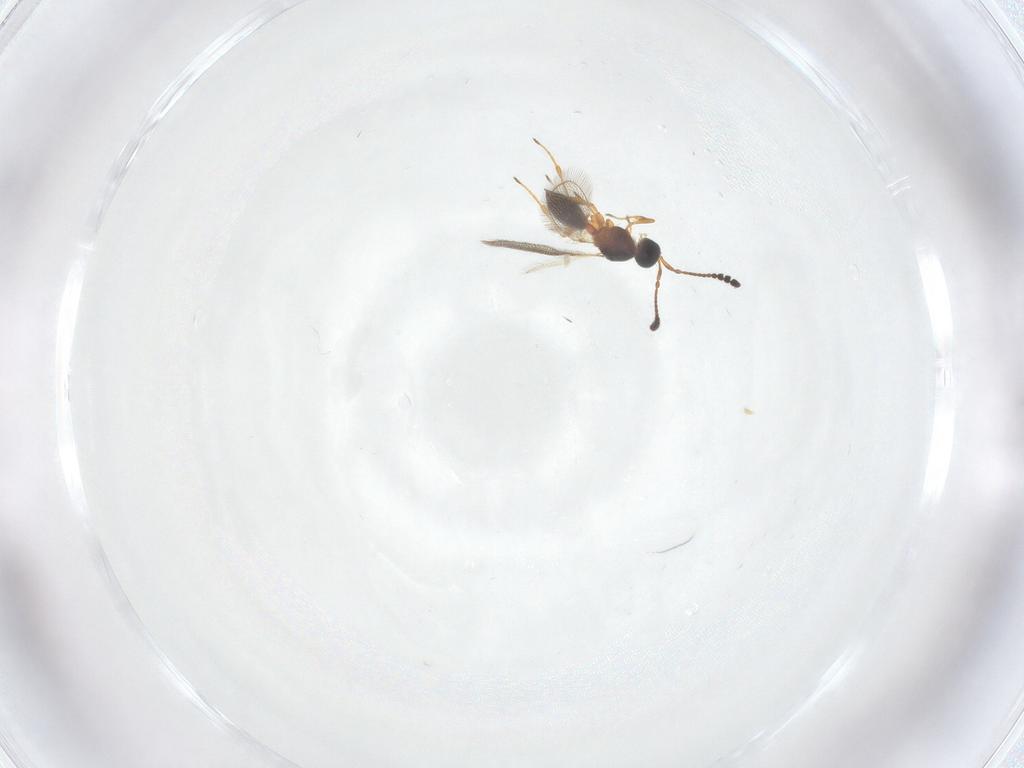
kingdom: Animalia
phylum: Arthropoda
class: Insecta
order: Hymenoptera
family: Diapriidae
